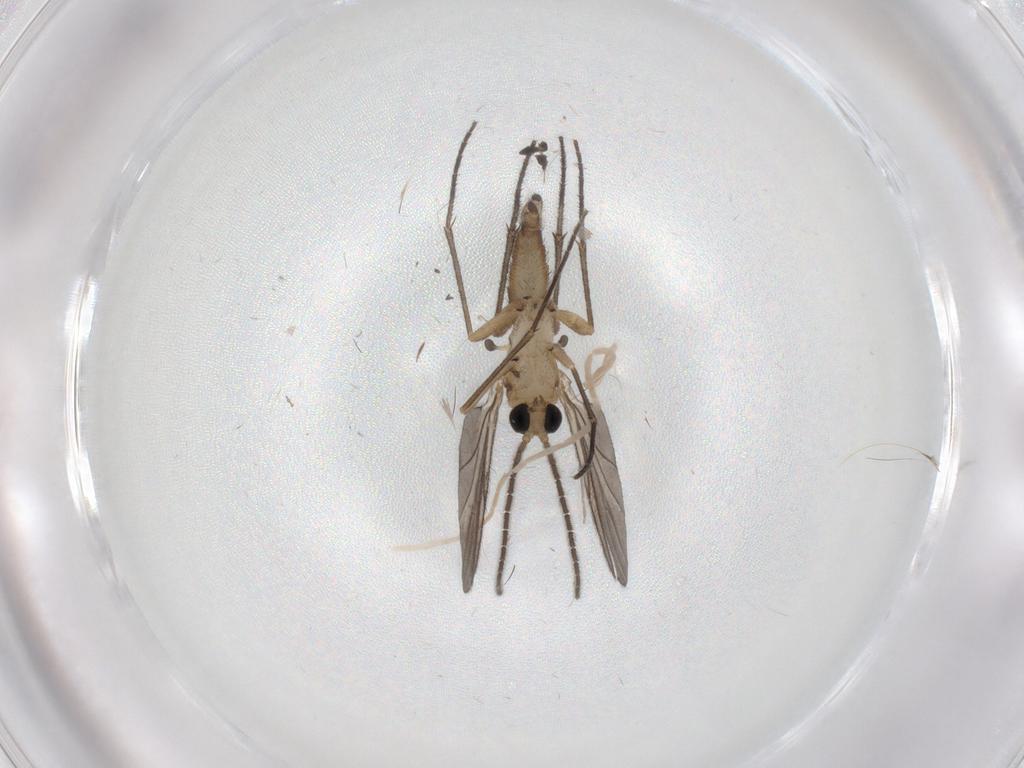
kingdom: Animalia
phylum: Arthropoda
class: Insecta
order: Diptera
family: Sciaridae
